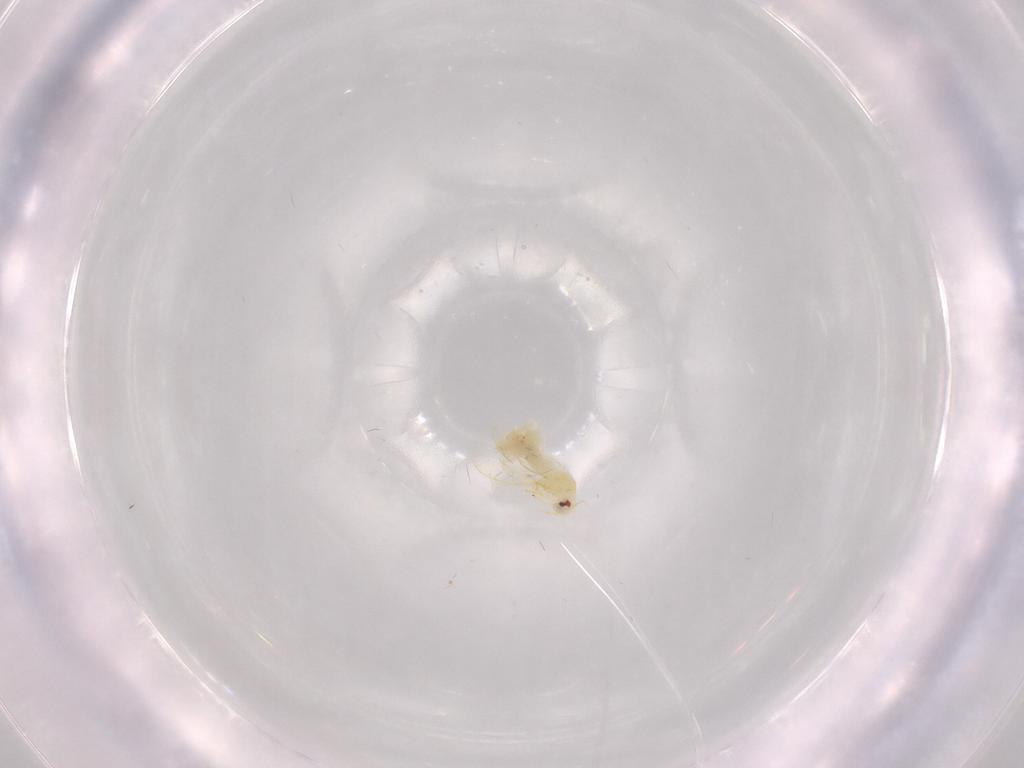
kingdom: Animalia
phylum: Arthropoda
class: Insecta
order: Hemiptera
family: Aleyrodidae
